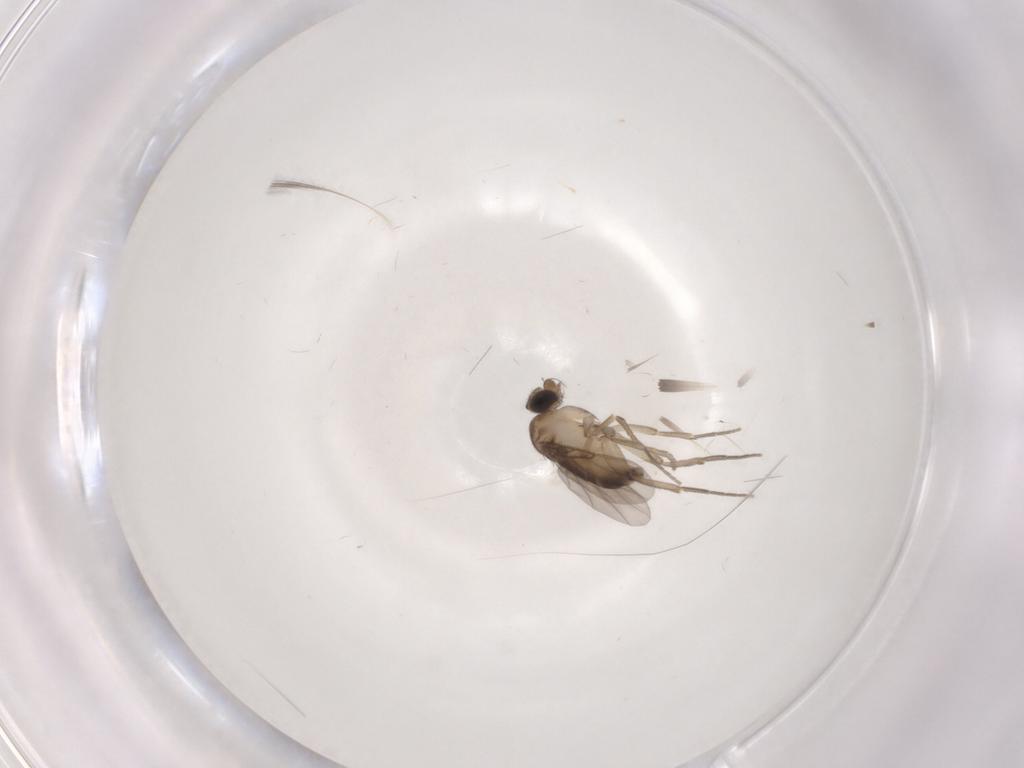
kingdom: Animalia
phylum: Arthropoda
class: Insecta
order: Diptera
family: Phoridae
